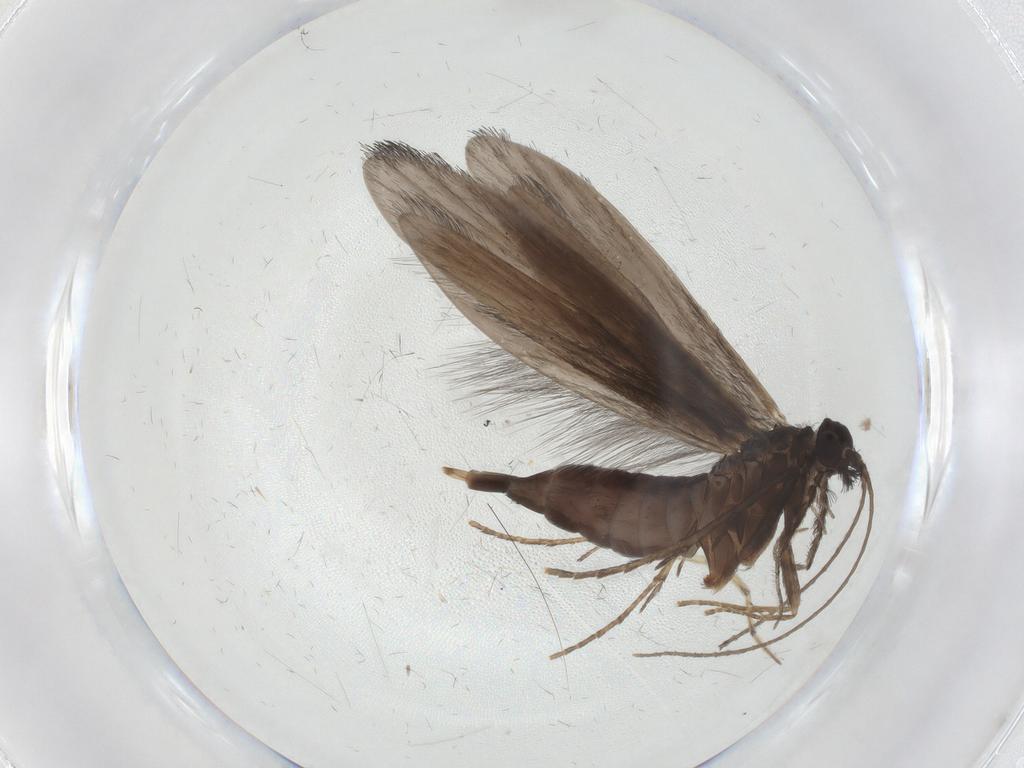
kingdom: Animalia
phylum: Arthropoda
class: Insecta
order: Trichoptera
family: Xiphocentronidae
